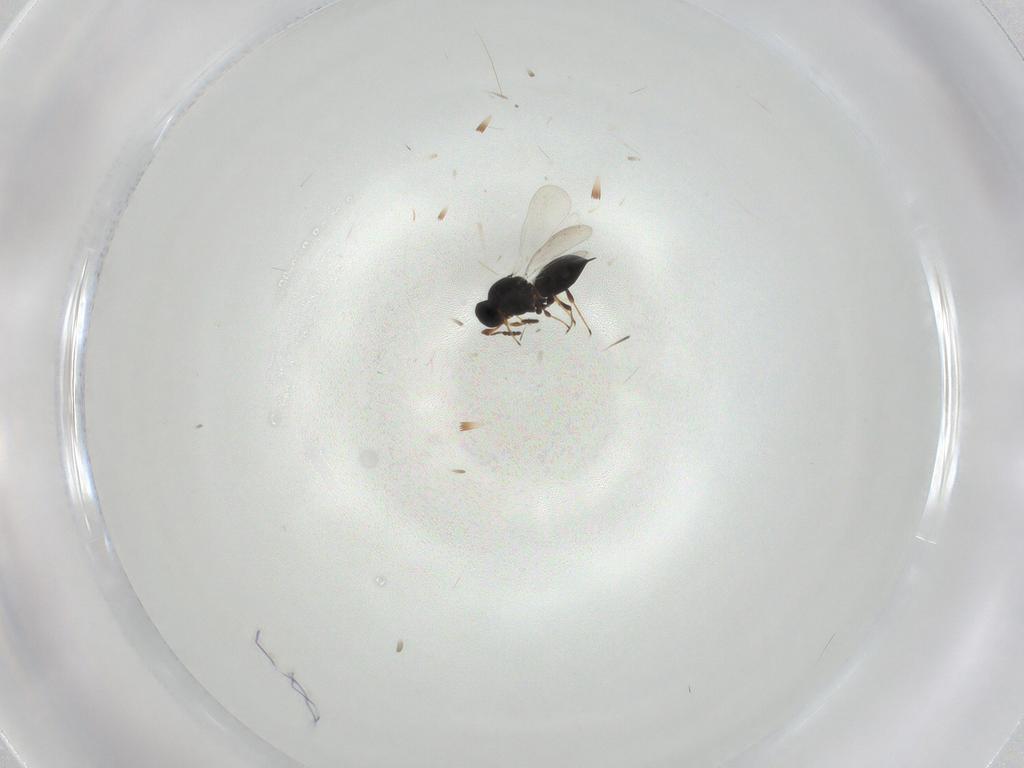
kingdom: Animalia
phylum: Arthropoda
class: Insecta
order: Hymenoptera
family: Platygastridae
